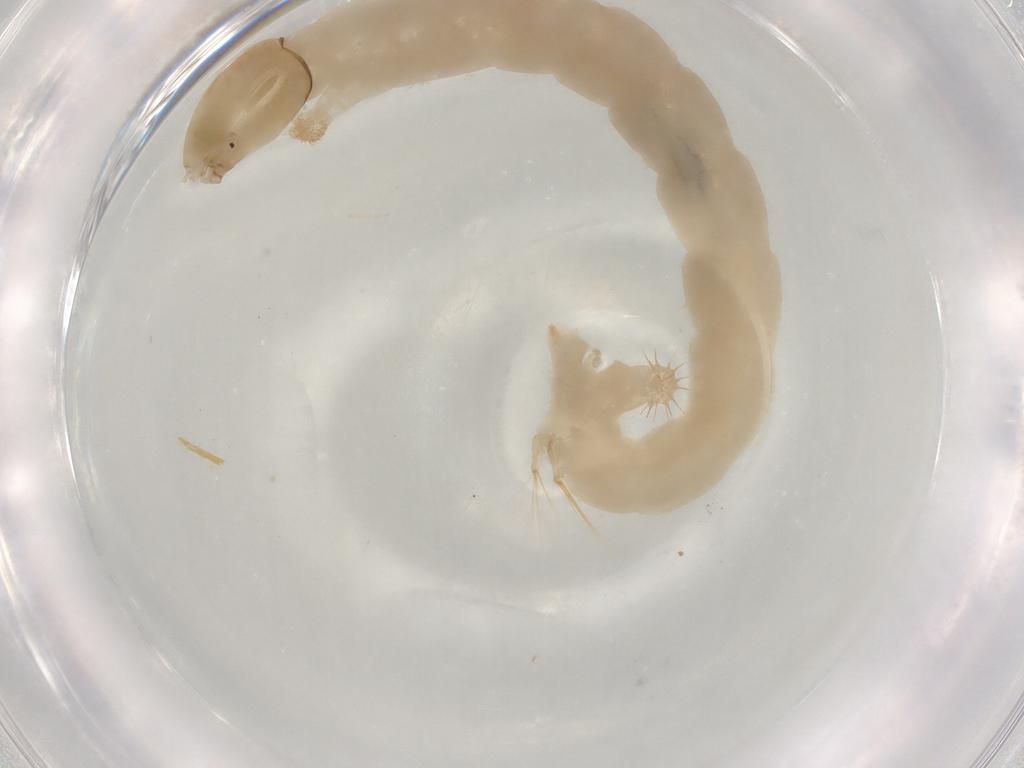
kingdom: Animalia
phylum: Arthropoda
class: Insecta
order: Diptera
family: Chironomidae
